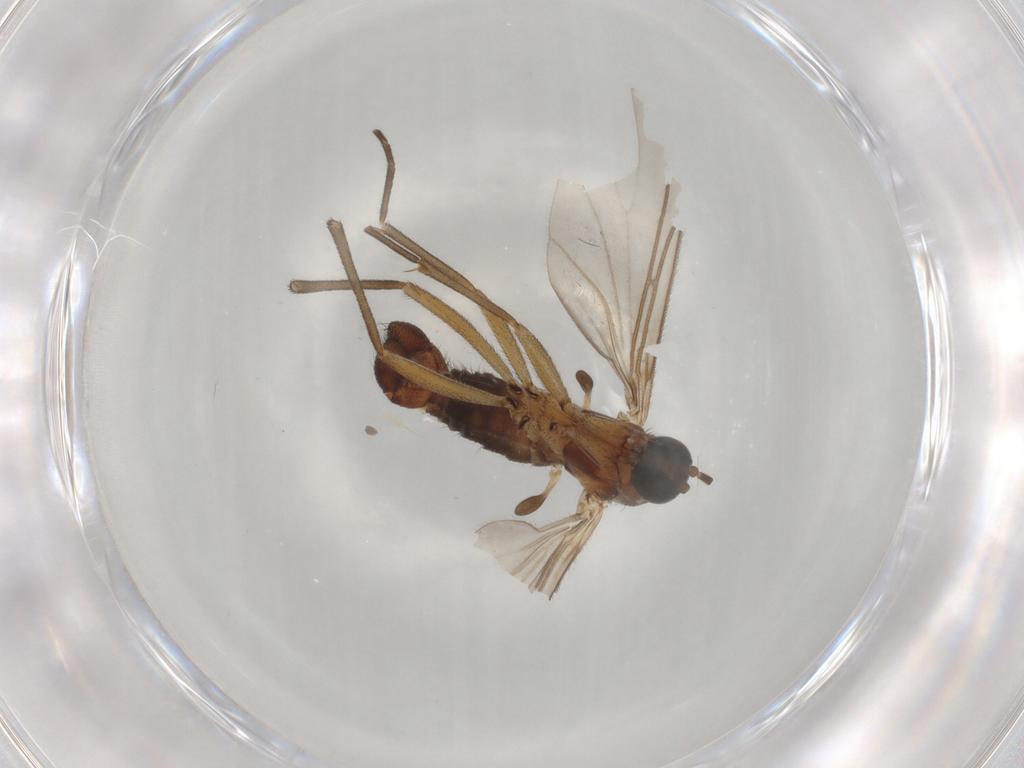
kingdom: Animalia
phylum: Arthropoda
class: Insecta
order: Diptera
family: Sciaridae
